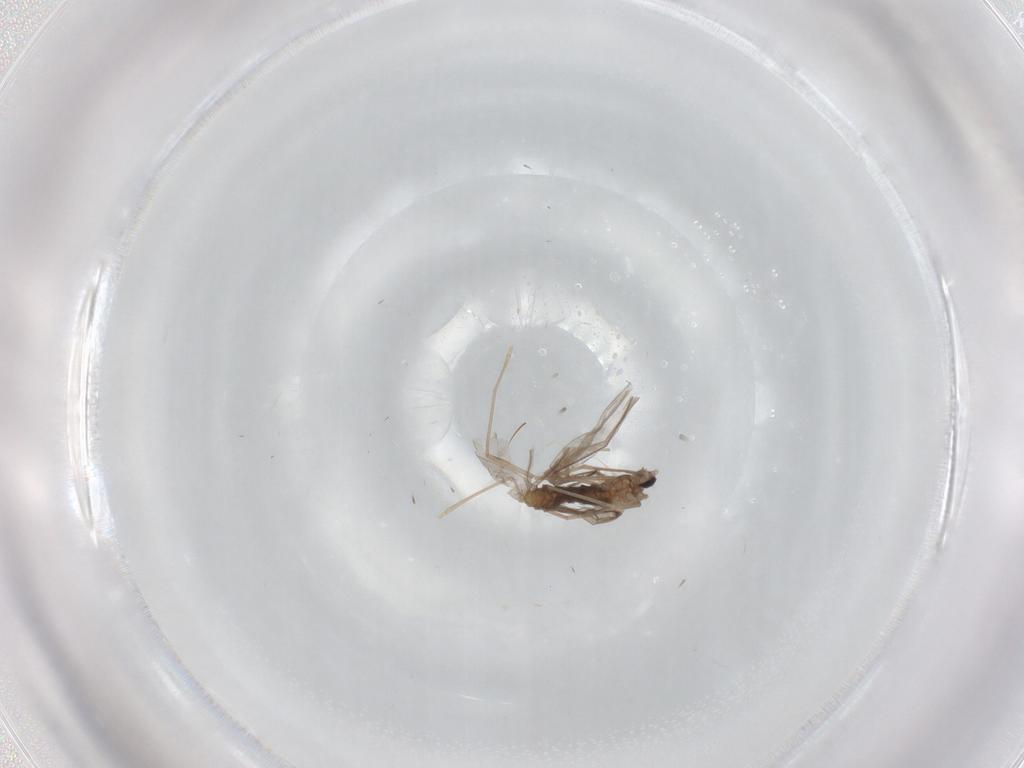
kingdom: Animalia
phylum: Arthropoda
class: Insecta
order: Diptera
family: Cecidomyiidae
